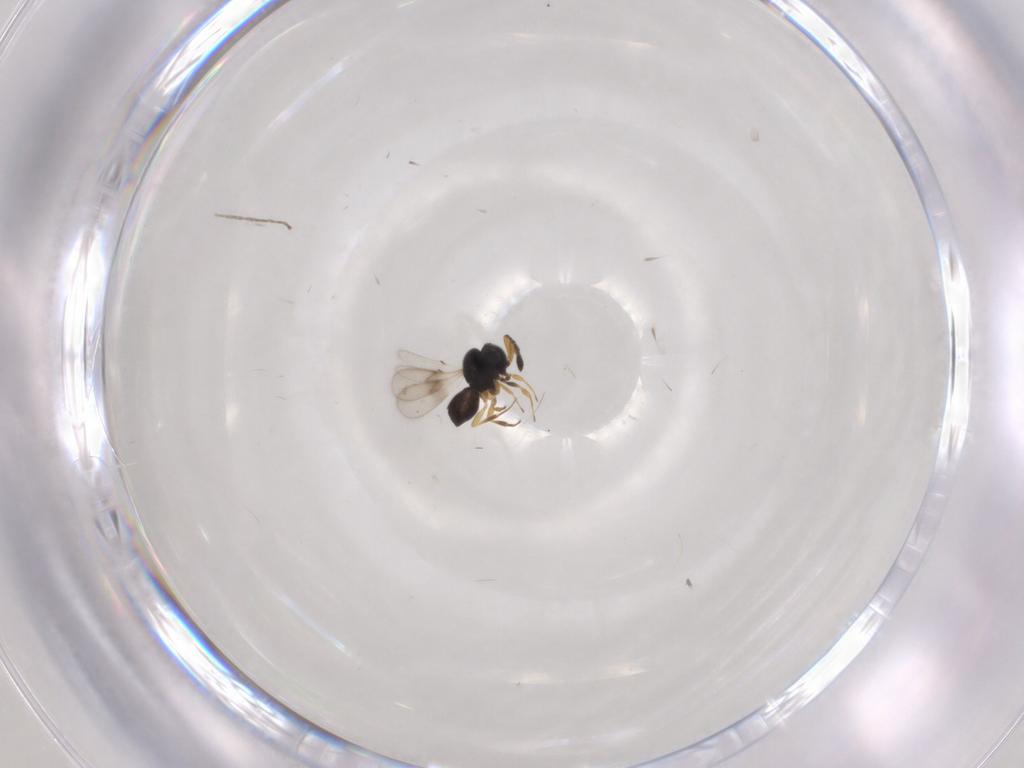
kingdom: Animalia
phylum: Arthropoda
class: Insecta
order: Hymenoptera
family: Scelionidae
